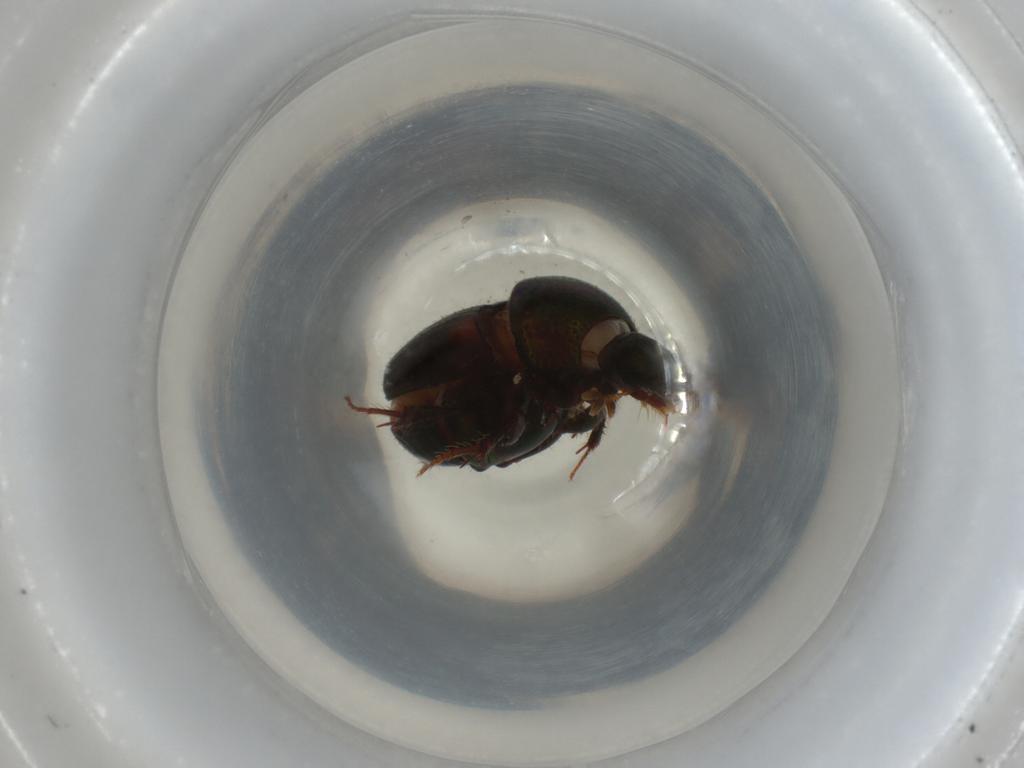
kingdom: Animalia
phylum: Arthropoda
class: Insecta
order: Coleoptera
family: Scarabaeidae
